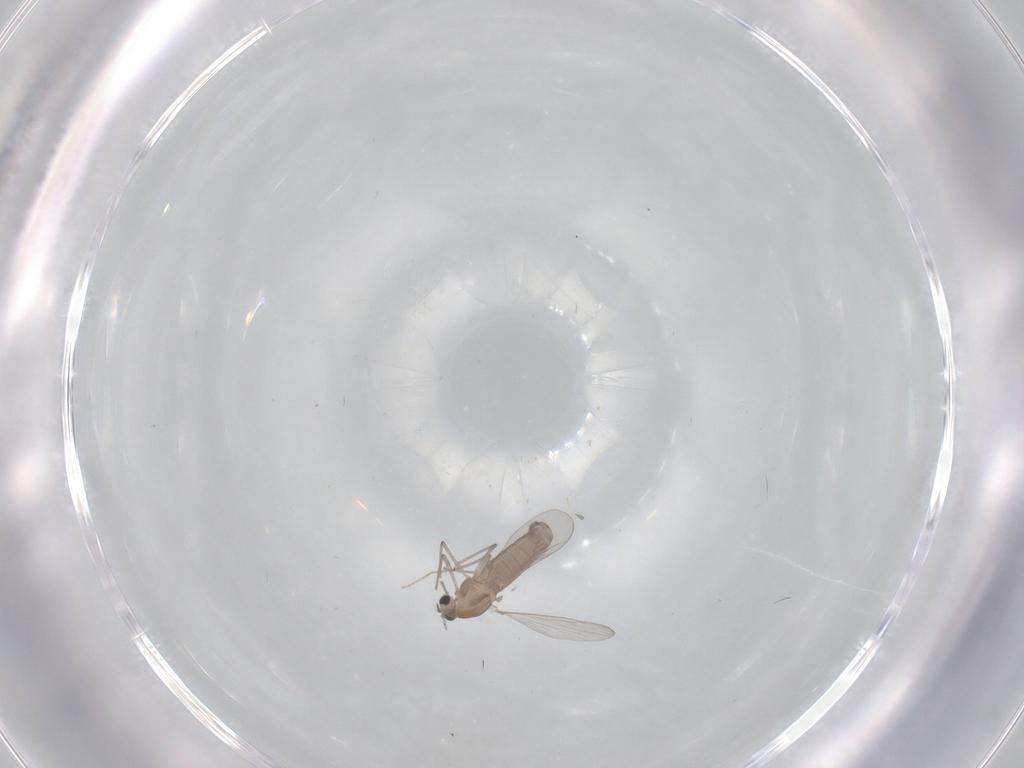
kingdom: Animalia
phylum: Arthropoda
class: Insecta
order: Diptera
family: Chironomidae
